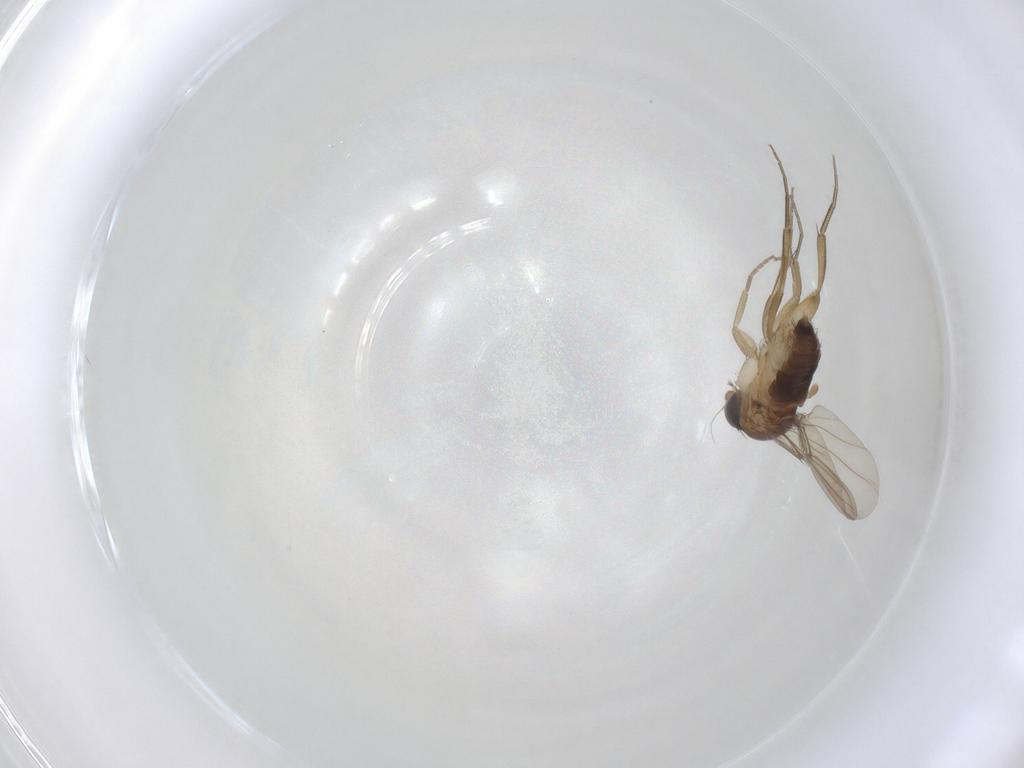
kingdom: Animalia
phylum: Arthropoda
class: Insecta
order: Diptera
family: Phoridae
